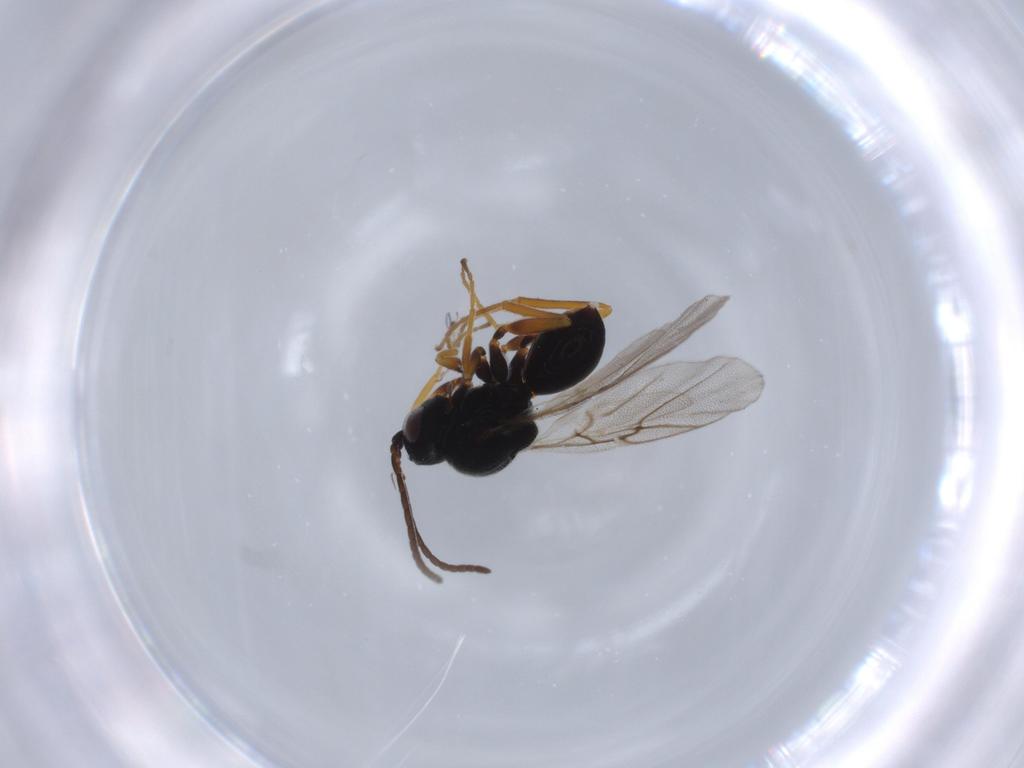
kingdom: Animalia
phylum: Arthropoda
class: Insecta
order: Hymenoptera
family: Cynipidae
